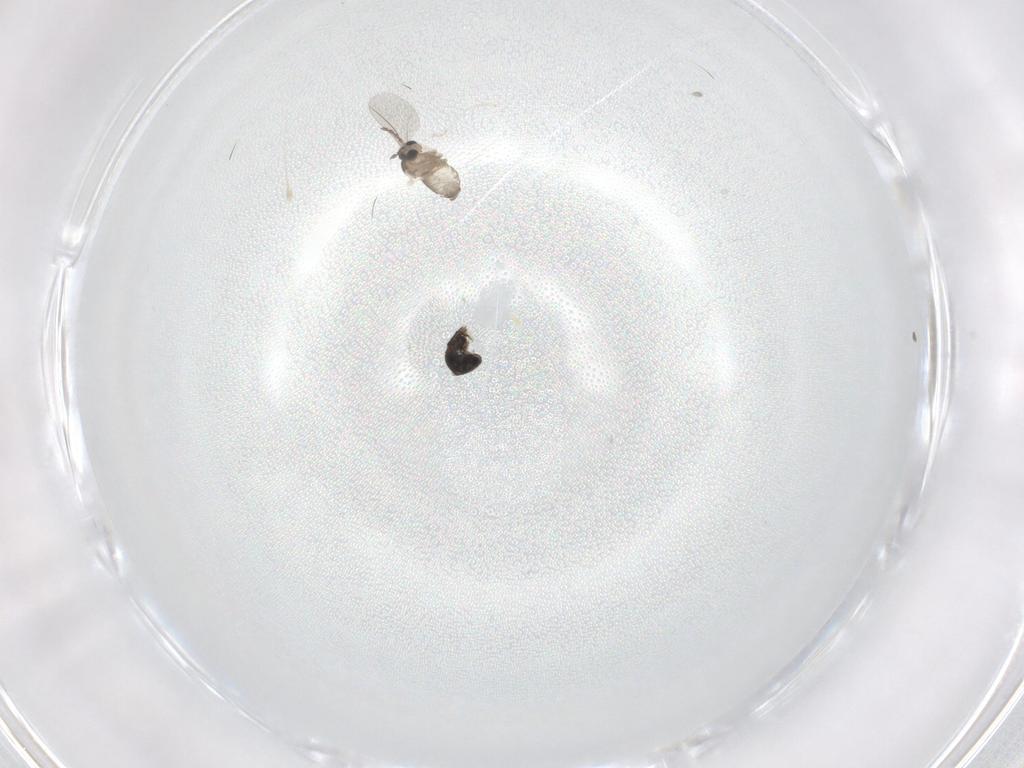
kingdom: Animalia
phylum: Arthropoda
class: Insecta
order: Diptera
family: Cecidomyiidae
